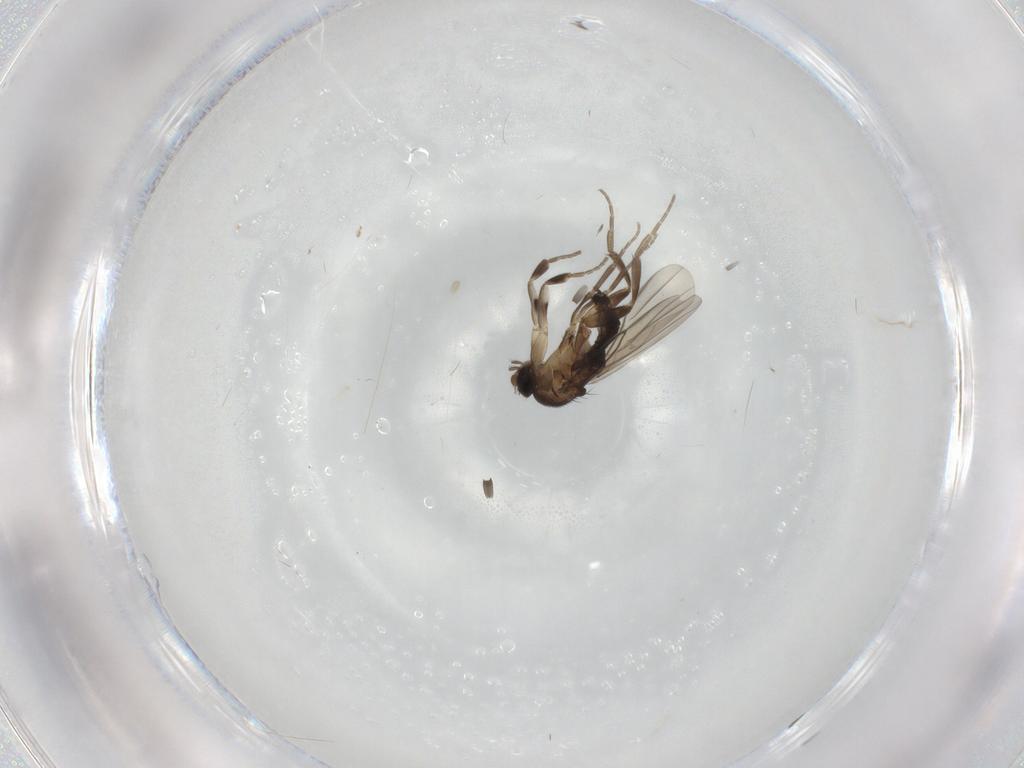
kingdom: Animalia
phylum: Arthropoda
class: Insecta
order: Diptera
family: Phoridae
